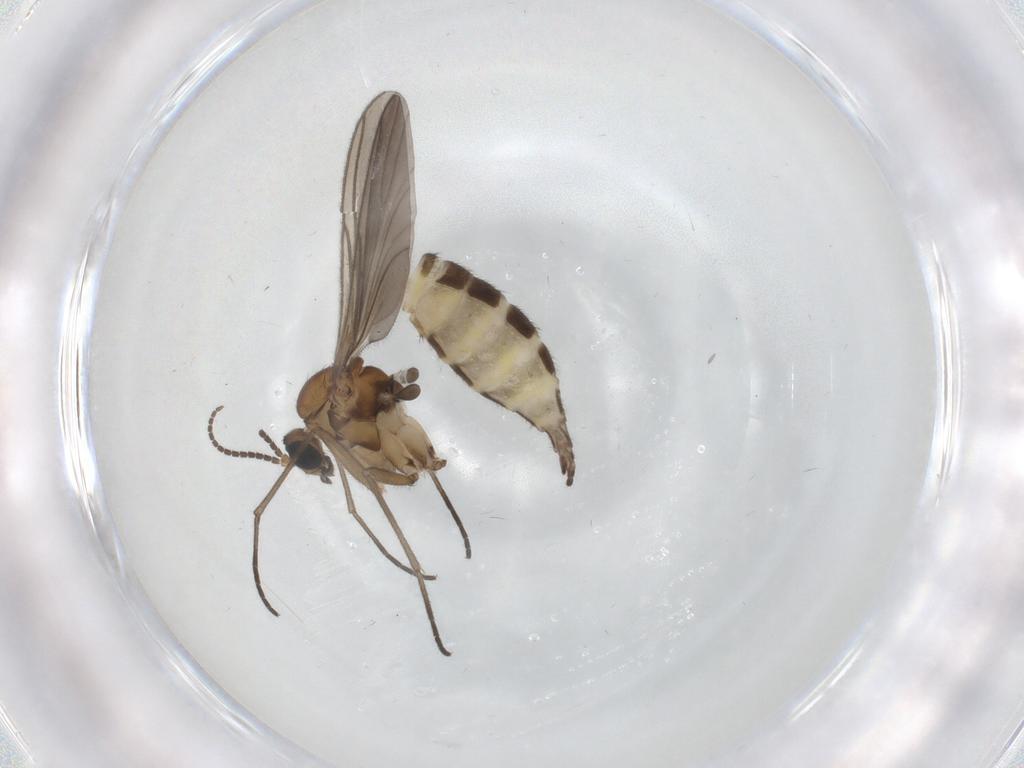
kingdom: Animalia
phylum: Arthropoda
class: Insecta
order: Diptera
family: Sciaridae
